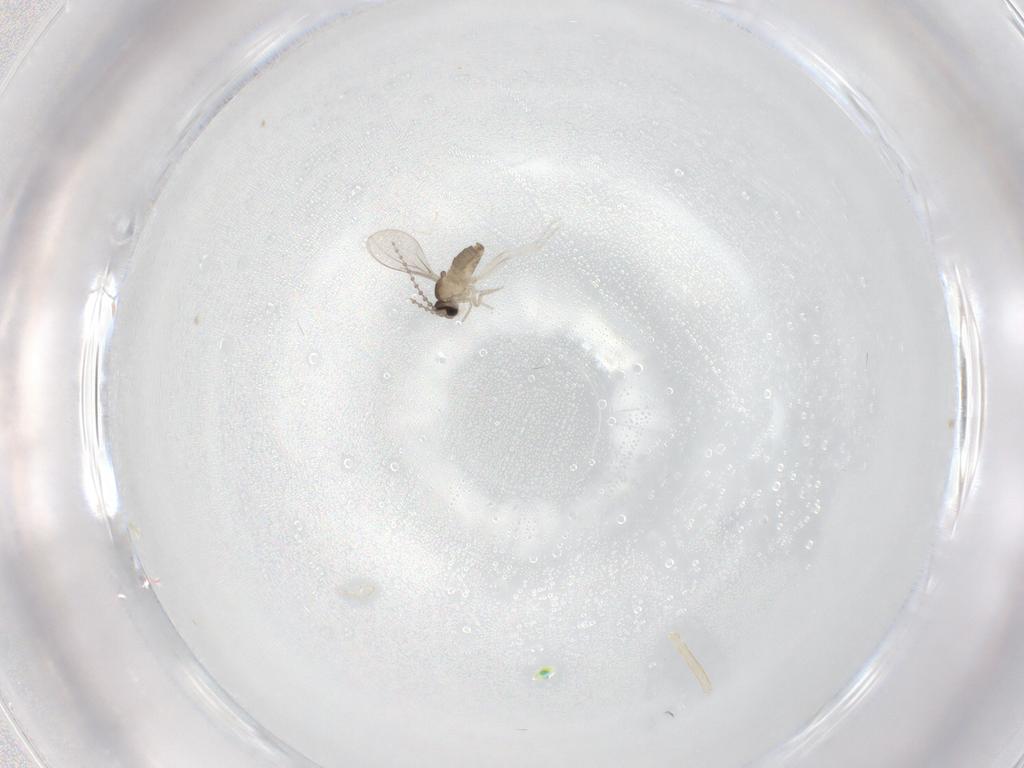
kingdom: Animalia
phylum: Arthropoda
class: Insecta
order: Diptera
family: Cecidomyiidae
